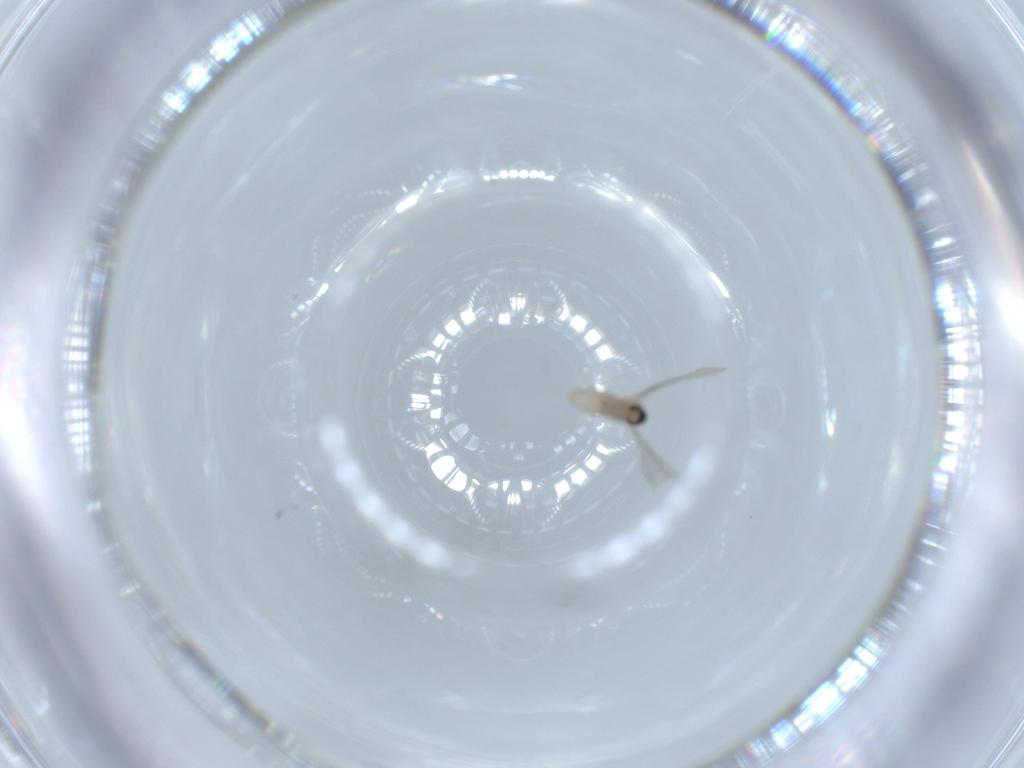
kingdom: Animalia
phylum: Arthropoda
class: Insecta
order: Diptera
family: Cecidomyiidae
